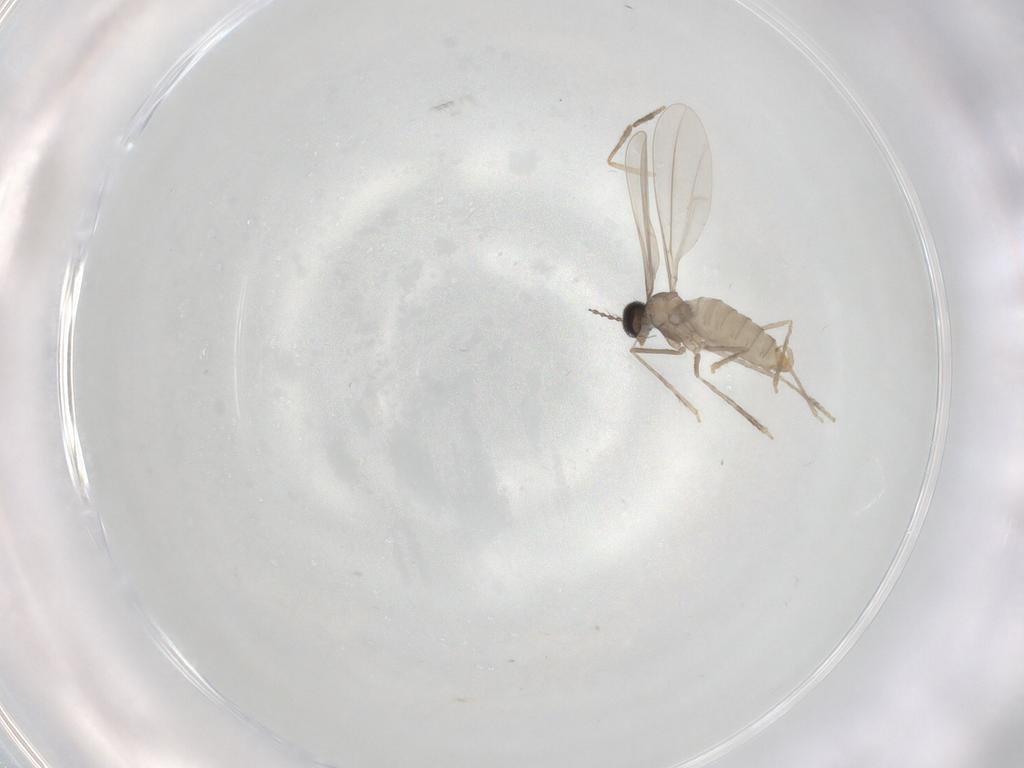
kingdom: Animalia
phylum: Arthropoda
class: Insecta
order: Diptera
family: Cecidomyiidae
